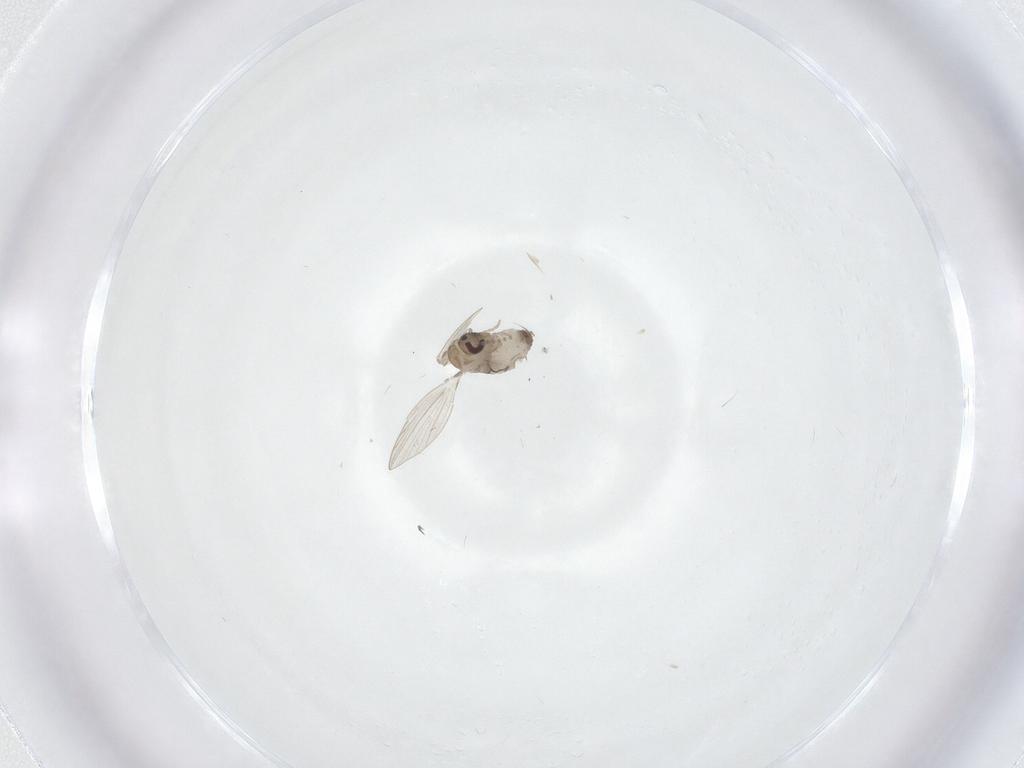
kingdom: Animalia
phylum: Arthropoda
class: Insecta
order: Diptera
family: Psychodidae
